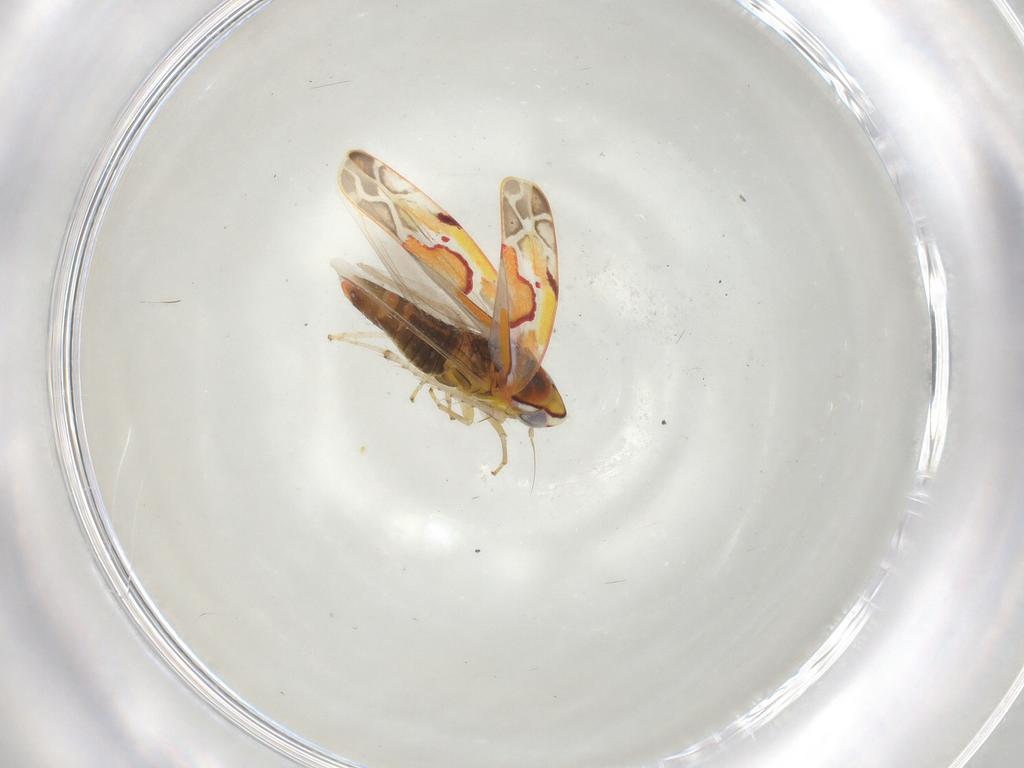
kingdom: Animalia
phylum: Arthropoda
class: Insecta
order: Hemiptera
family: Cicadellidae
